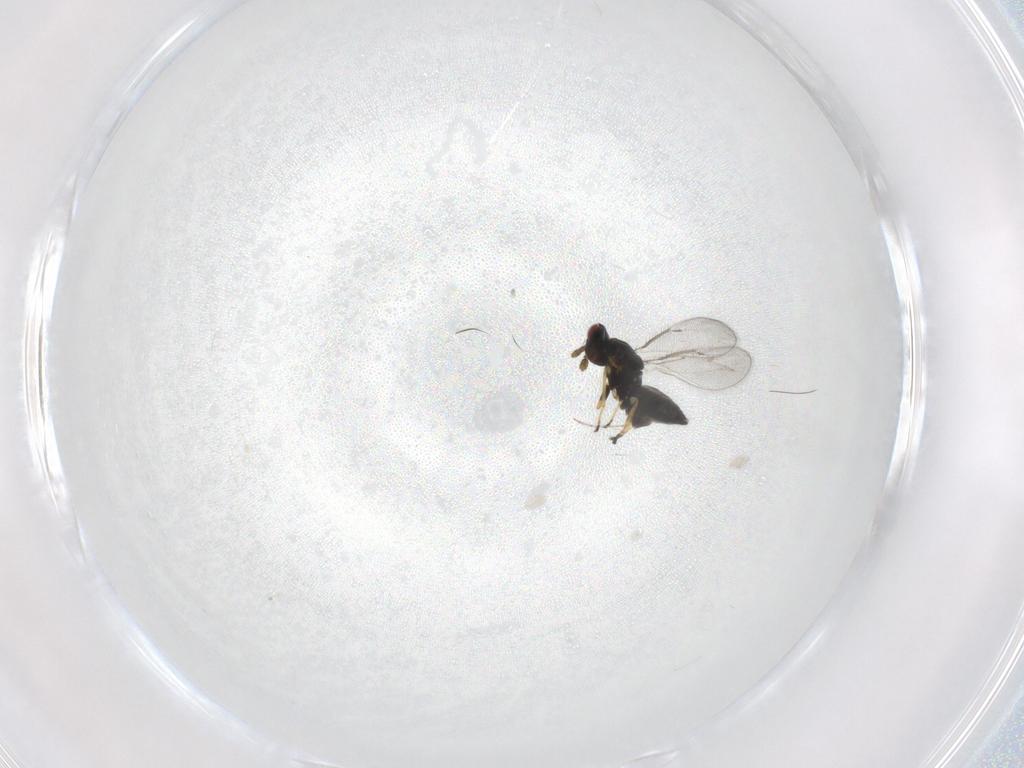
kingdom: Animalia
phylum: Arthropoda
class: Insecta
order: Hymenoptera
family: Eulophidae
